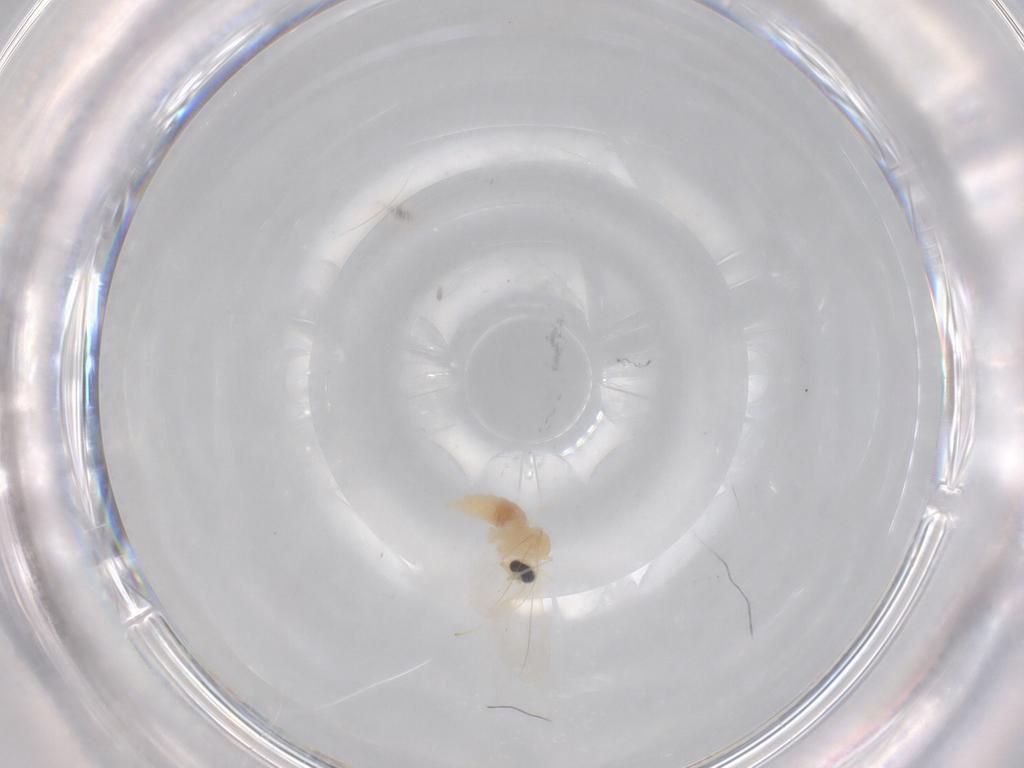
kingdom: Animalia
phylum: Arthropoda
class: Insecta
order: Diptera
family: Cecidomyiidae
